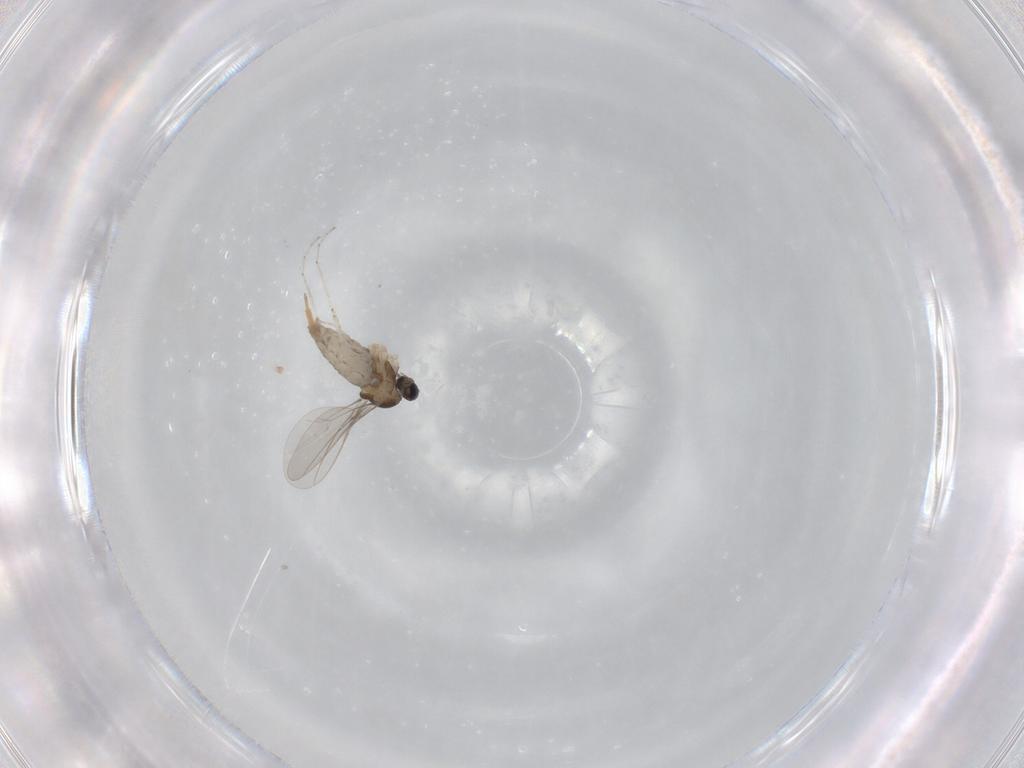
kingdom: Animalia
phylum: Arthropoda
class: Insecta
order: Diptera
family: Cecidomyiidae
